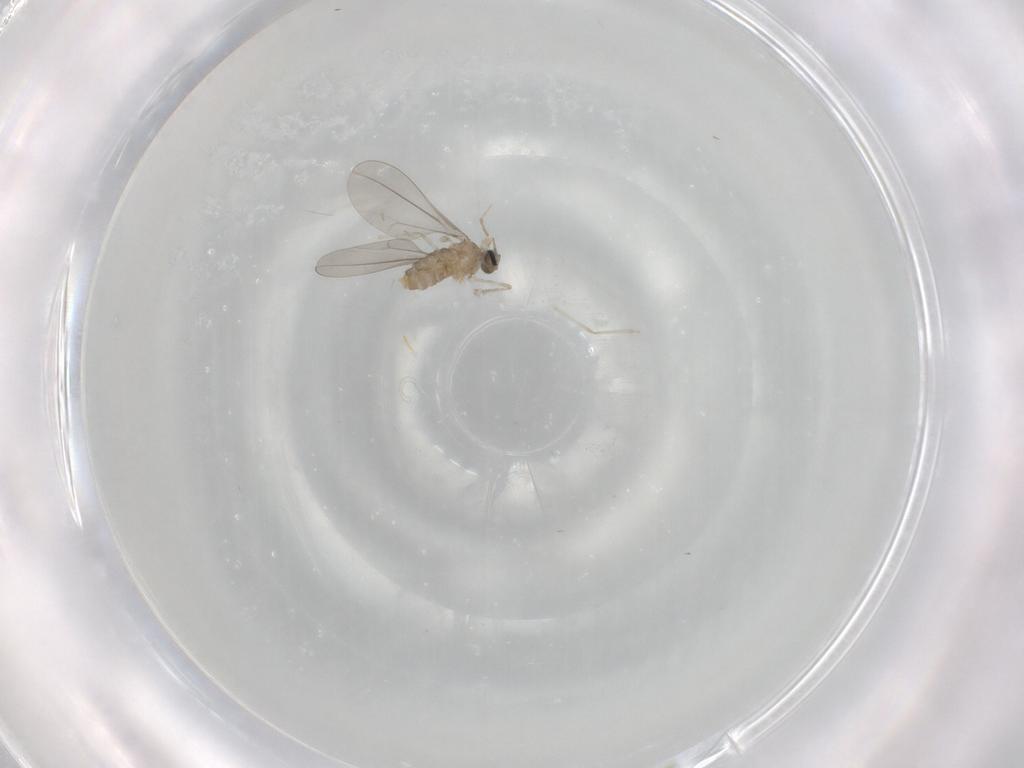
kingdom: Animalia
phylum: Arthropoda
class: Insecta
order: Diptera
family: Cecidomyiidae
